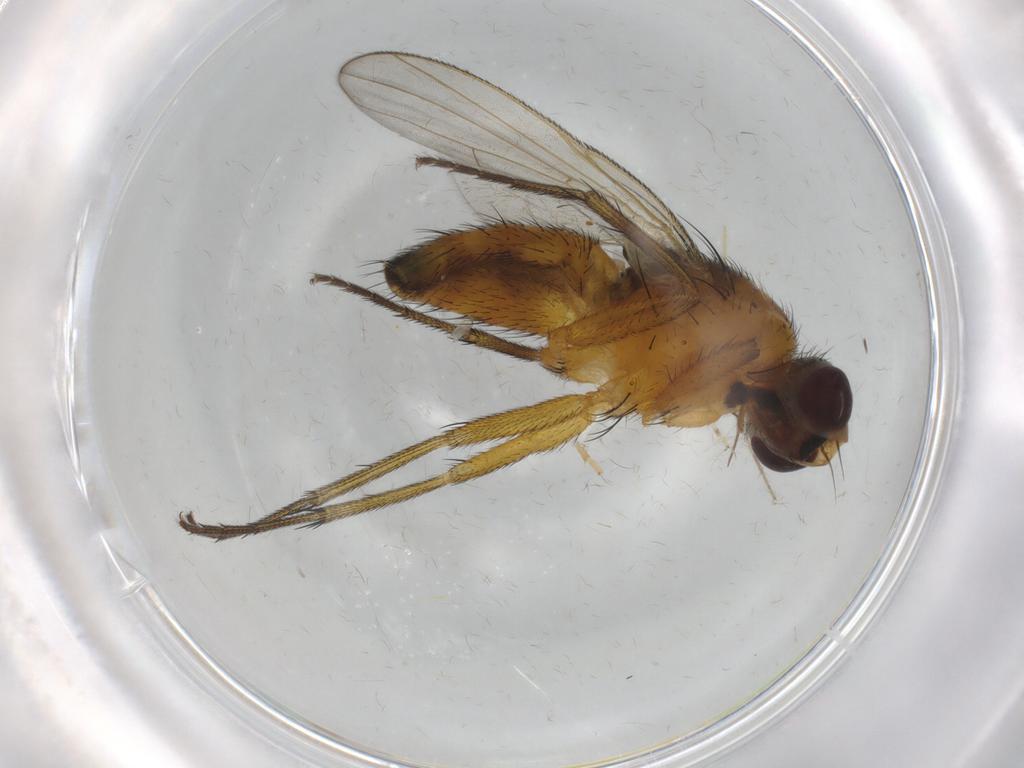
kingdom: Animalia
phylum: Arthropoda
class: Insecta
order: Diptera
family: Muscidae
